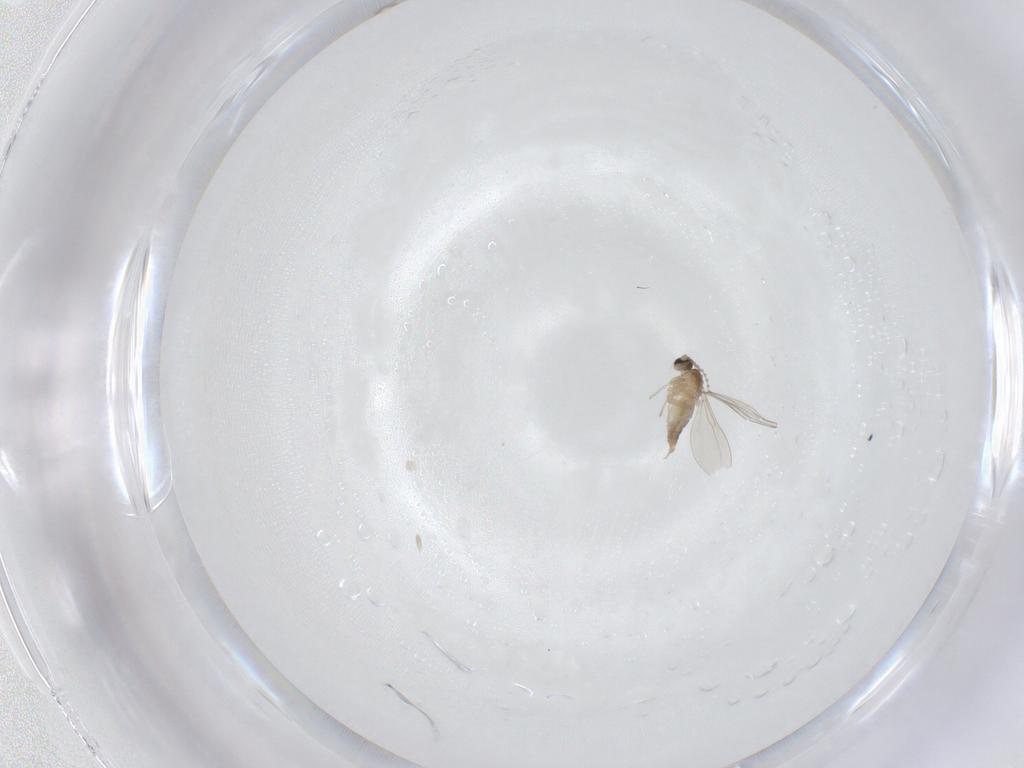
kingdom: Animalia
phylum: Arthropoda
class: Insecta
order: Diptera
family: Cecidomyiidae
